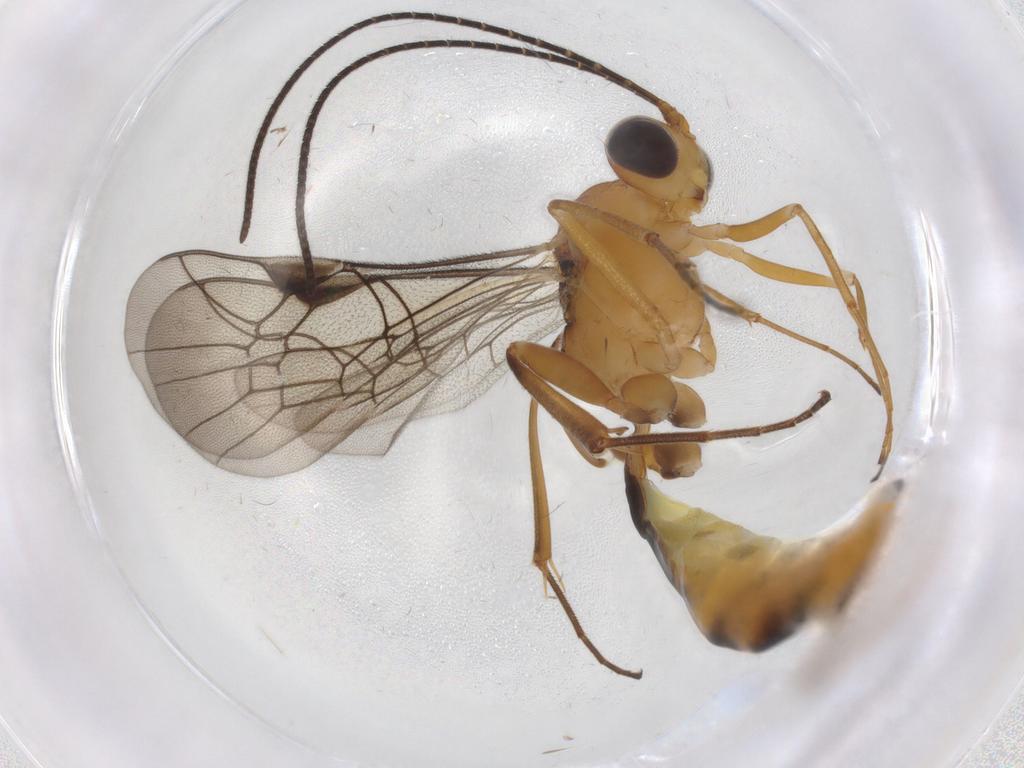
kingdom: Animalia
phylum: Arthropoda
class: Insecta
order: Hymenoptera
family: Ichneumonidae
